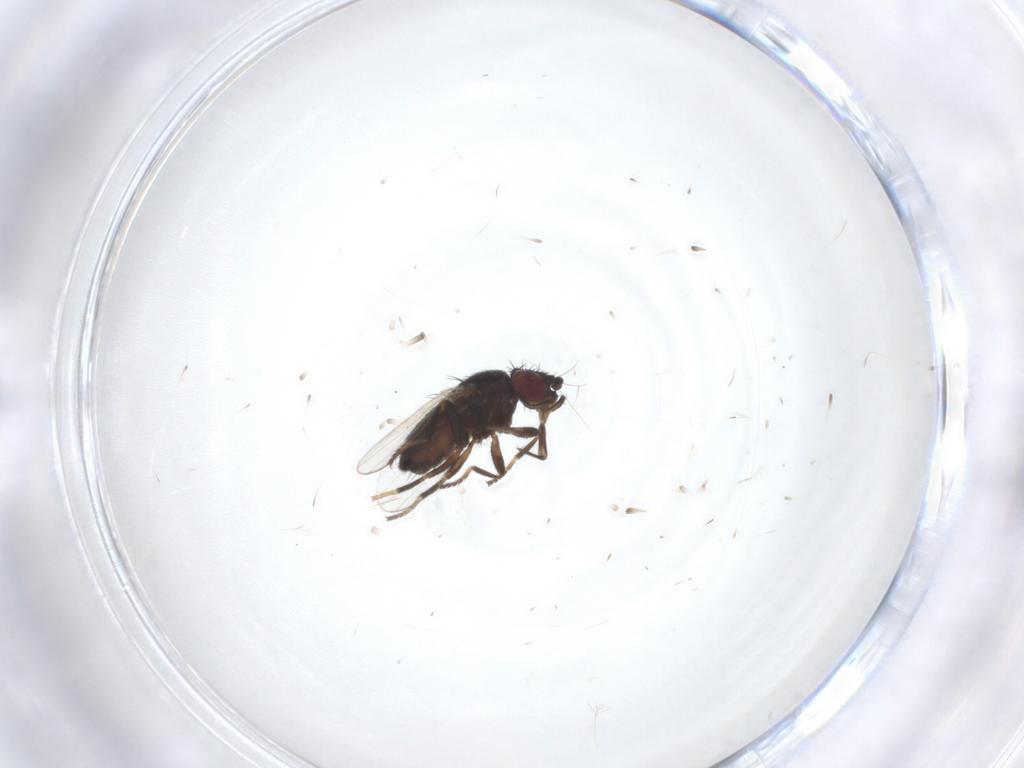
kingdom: Animalia
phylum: Arthropoda
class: Insecta
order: Diptera
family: Milichiidae
